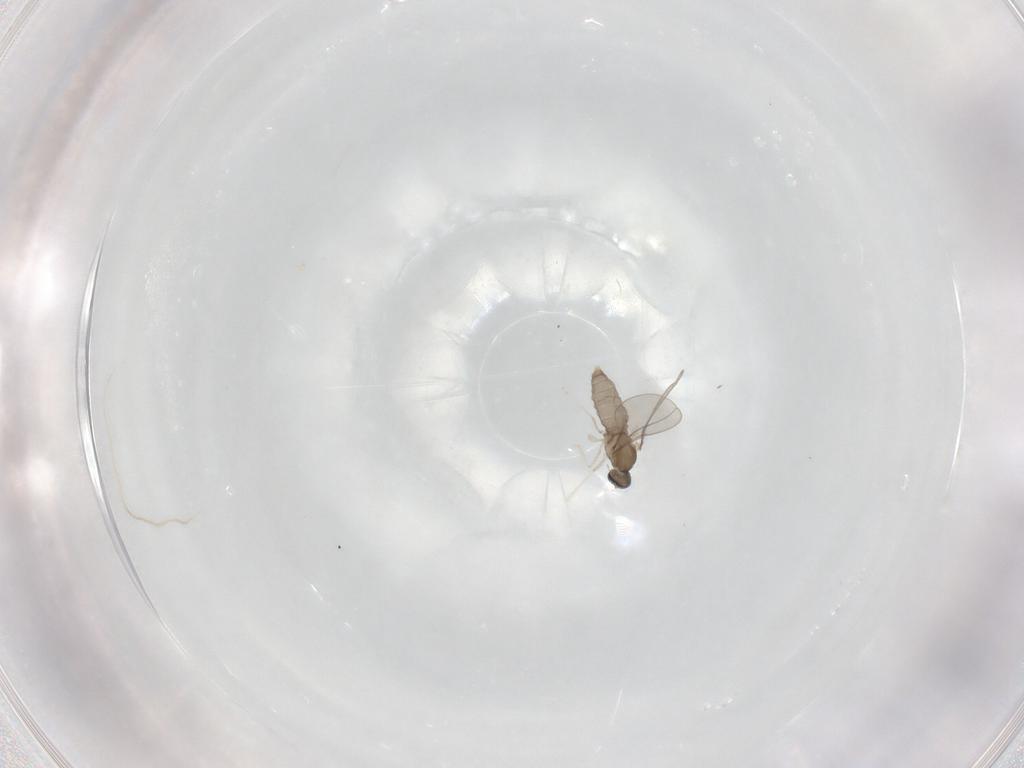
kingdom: Animalia
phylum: Arthropoda
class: Insecta
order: Diptera
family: Cecidomyiidae
